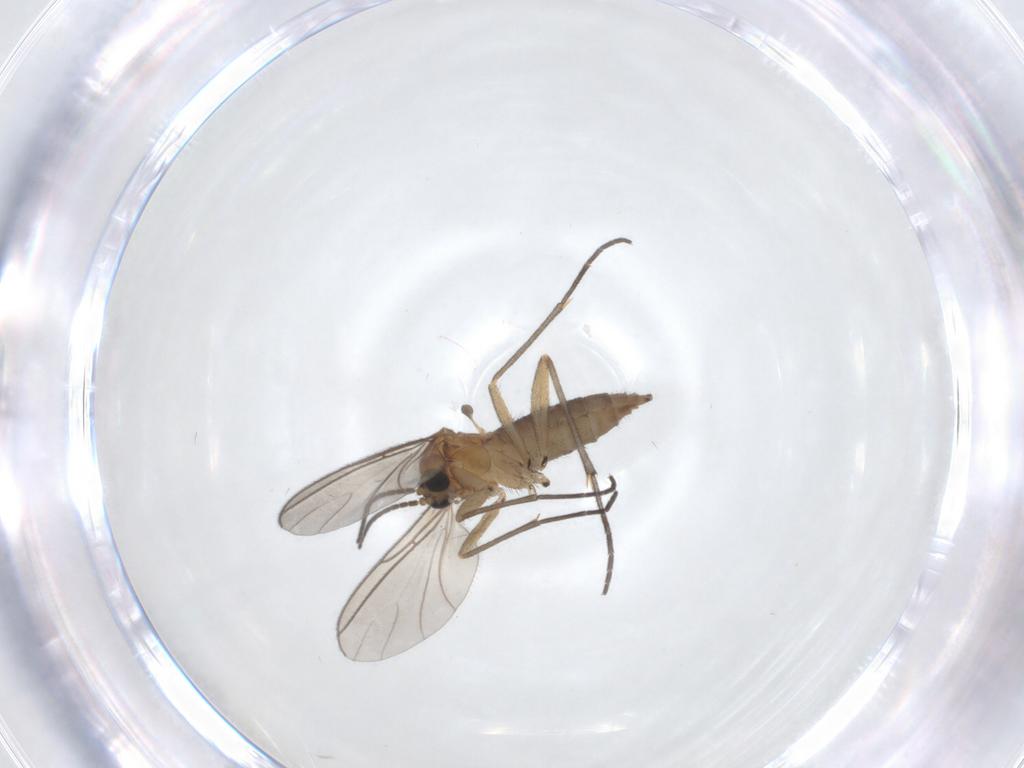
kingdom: Animalia
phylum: Arthropoda
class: Insecta
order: Diptera
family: Sciaridae
